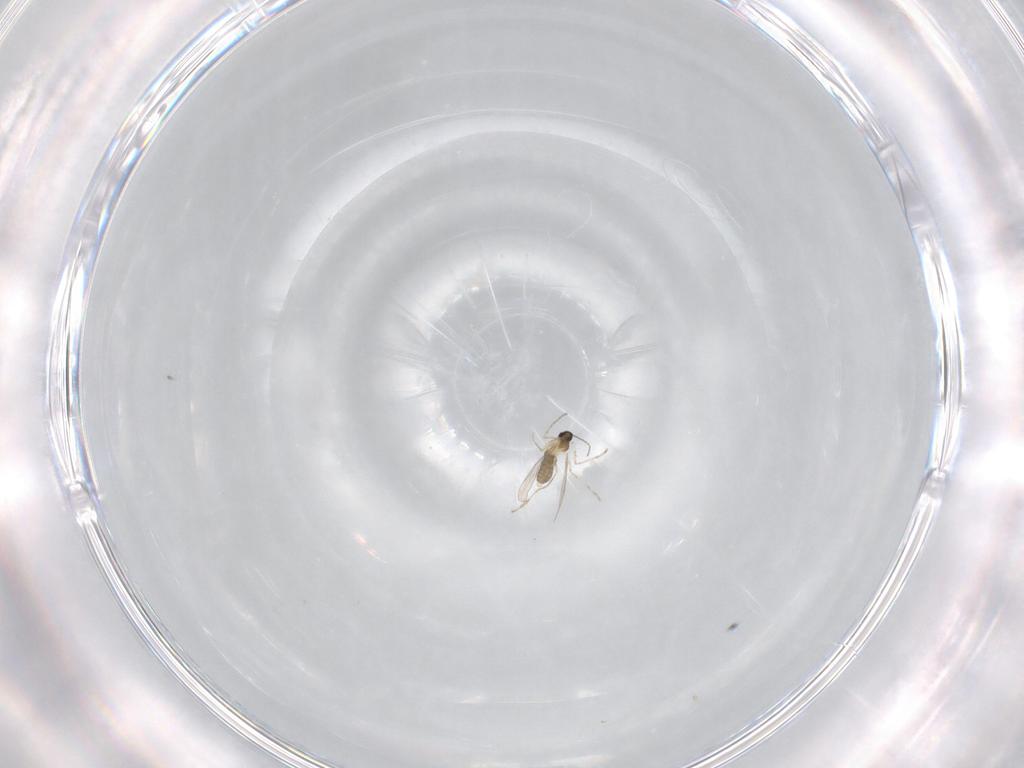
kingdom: Animalia
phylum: Arthropoda
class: Insecta
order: Diptera
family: Cecidomyiidae
